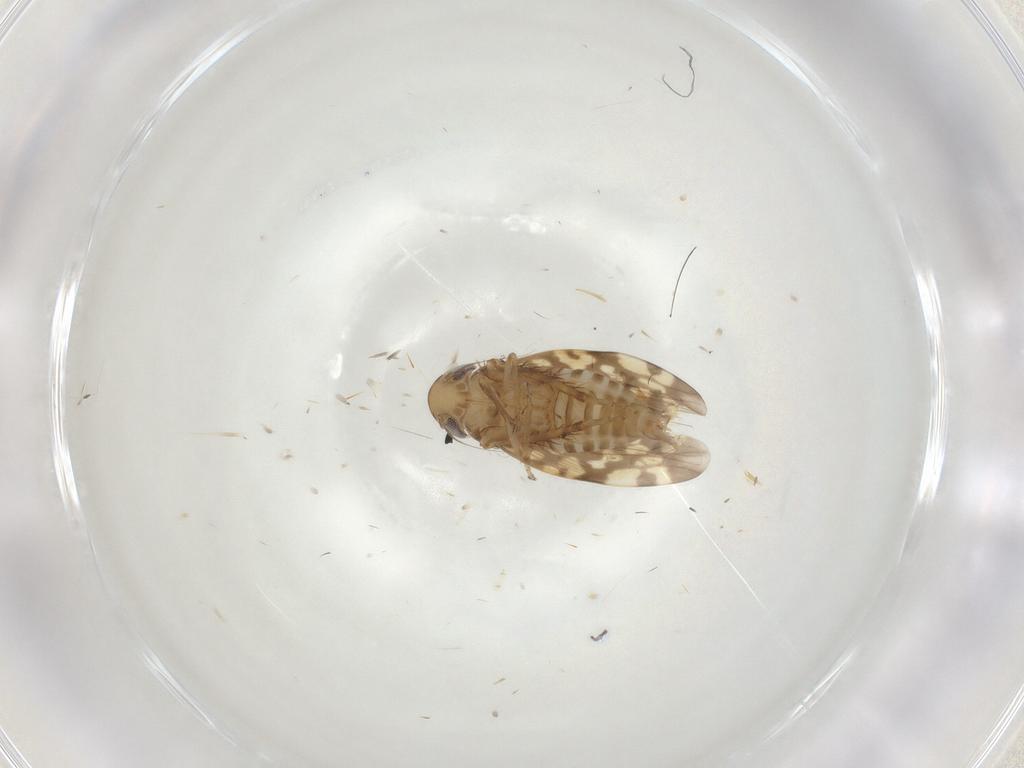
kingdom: Animalia
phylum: Arthropoda
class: Insecta
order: Hemiptera
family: Cicadellidae
